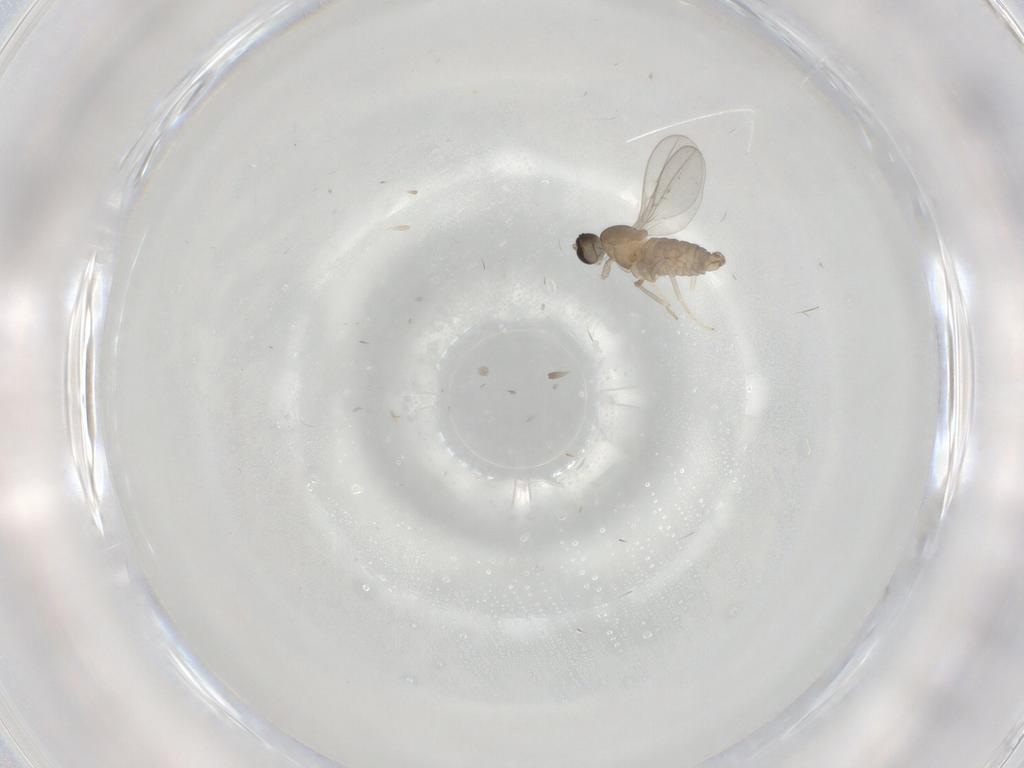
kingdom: Animalia
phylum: Arthropoda
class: Insecta
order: Diptera
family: Cecidomyiidae
